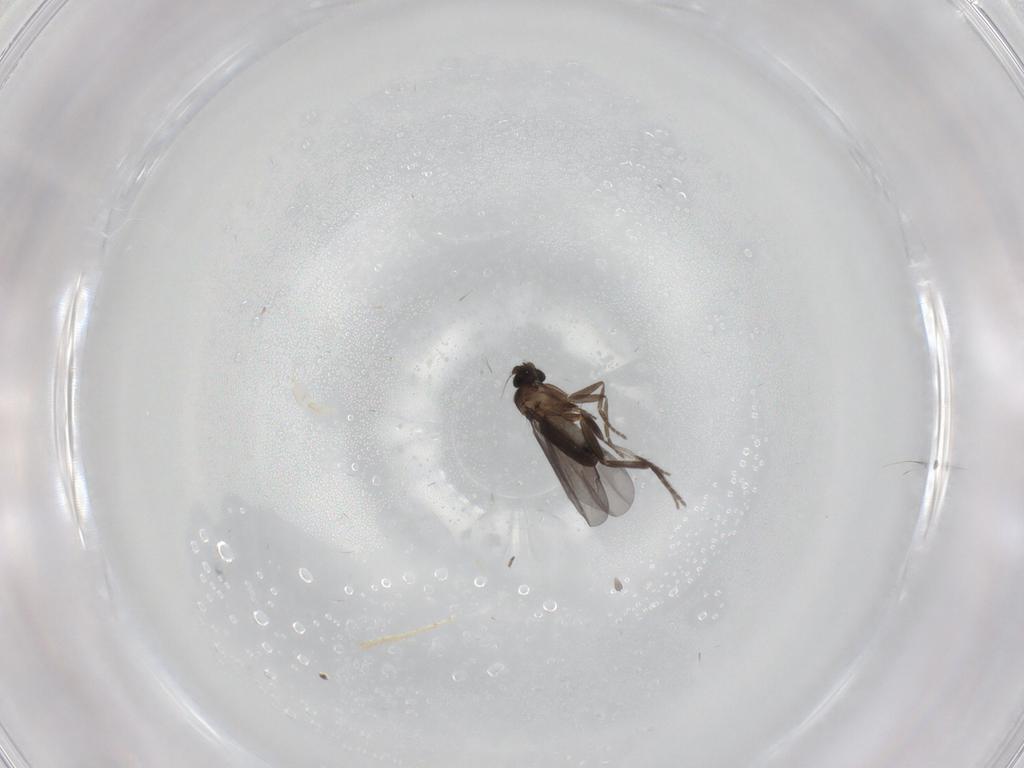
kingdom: Animalia
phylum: Arthropoda
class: Insecta
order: Diptera
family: Phoridae
